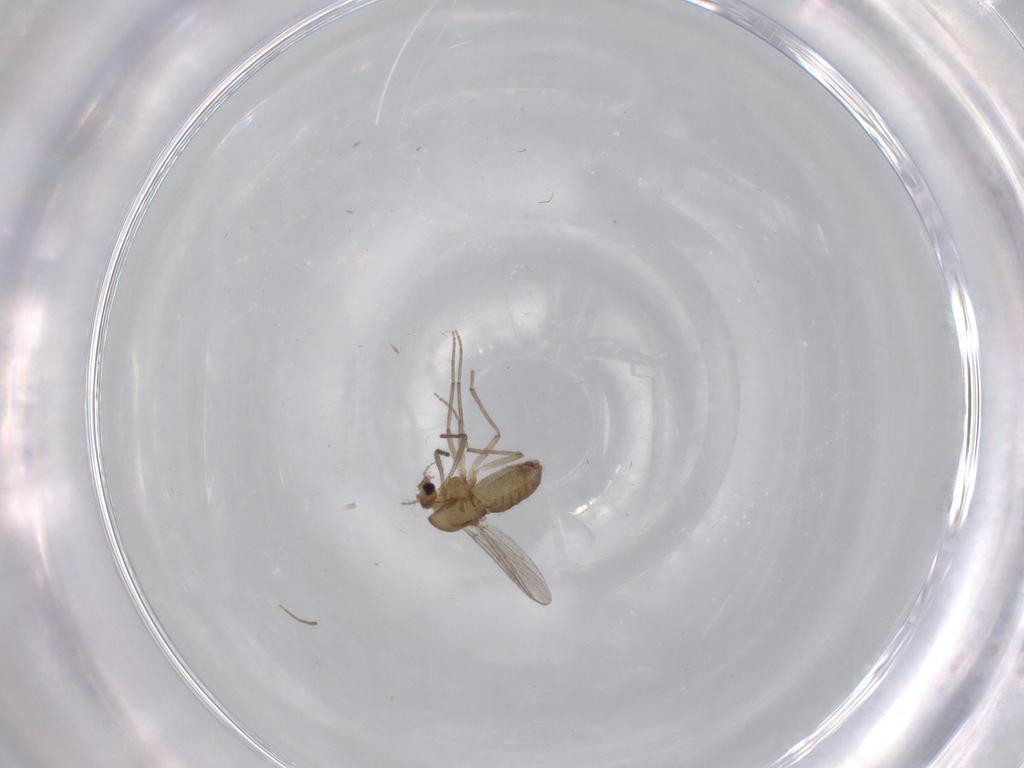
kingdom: Animalia
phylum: Arthropoda
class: Insecta
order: Diptera
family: Chironomidae
